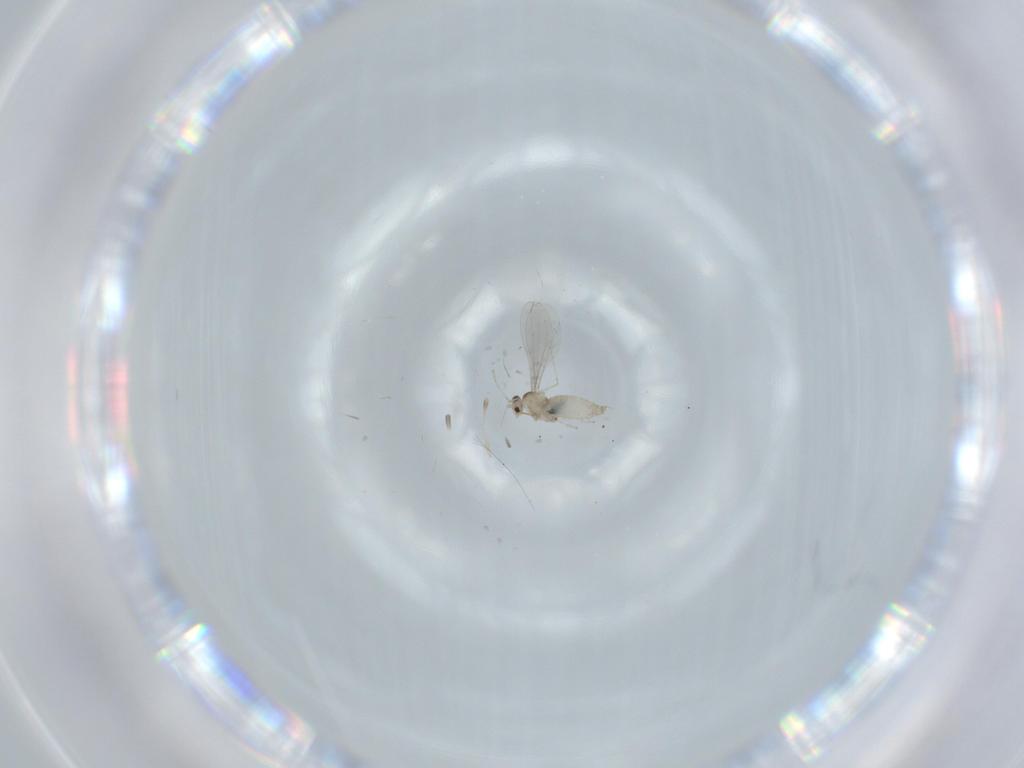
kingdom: Animalia
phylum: Arthropoda
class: Insecta
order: Diptera
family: Cecidomyiidae
